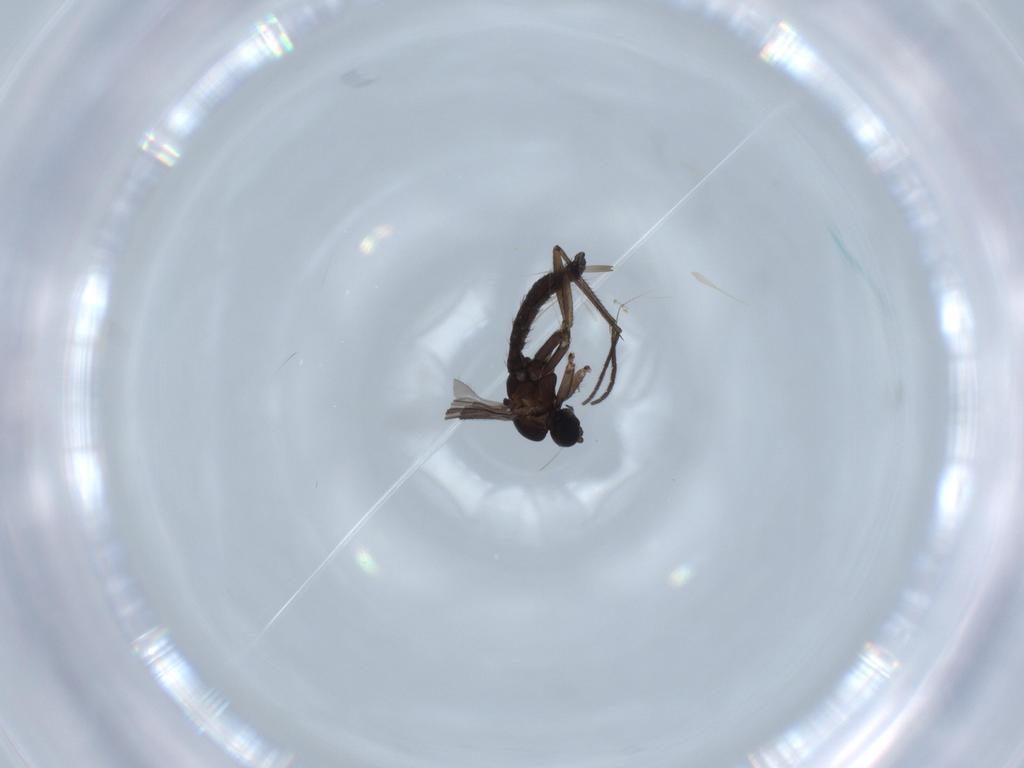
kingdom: Animalia
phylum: Arthropoda
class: Insecta
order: Diptera
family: Sciaridae
